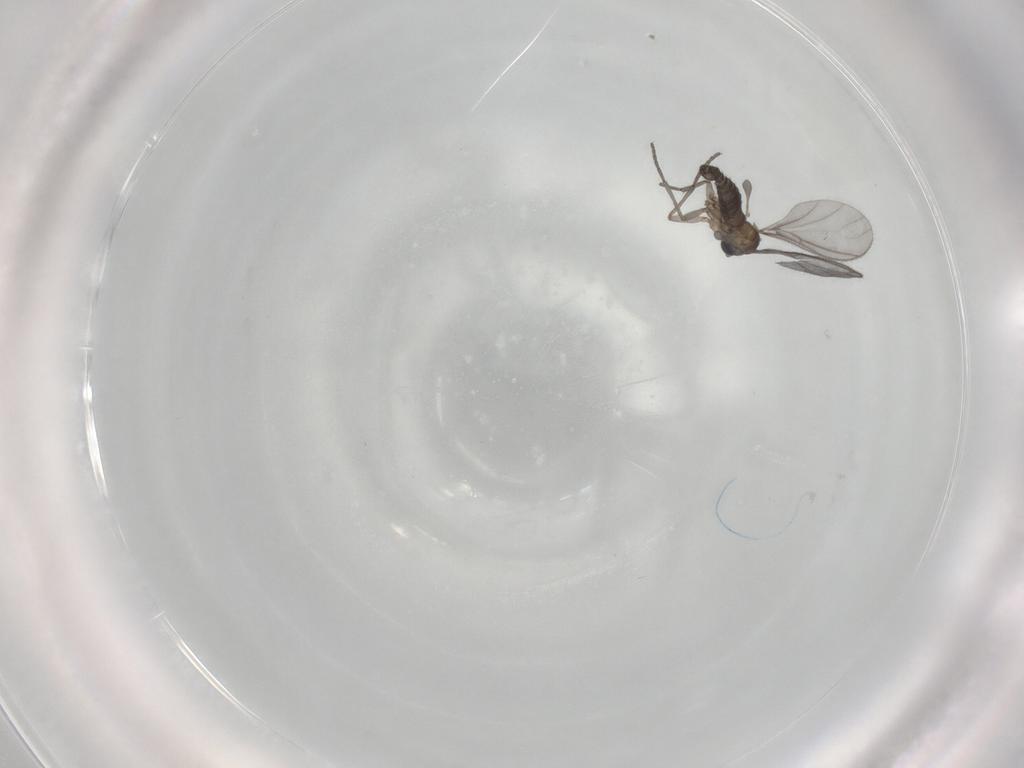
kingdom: Animalia
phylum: Arthropoda
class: Insecta
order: Diptera
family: Sciaridae
